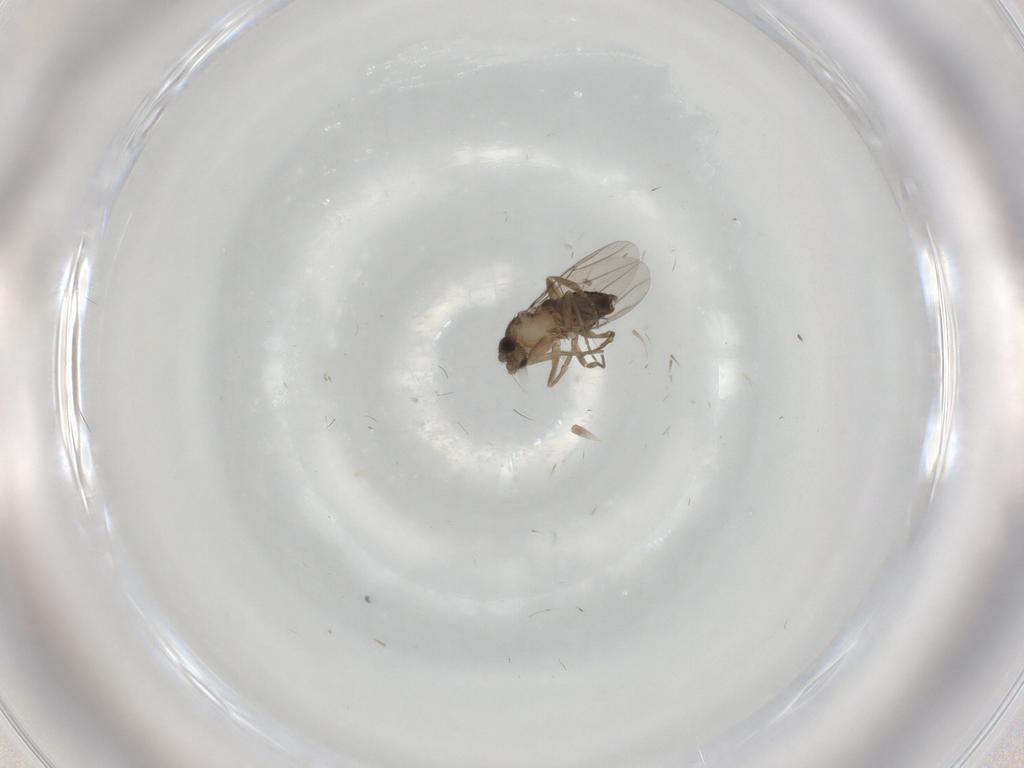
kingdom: Animalia
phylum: Arthropoda
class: Insecta
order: Diptera
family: Phoridae
